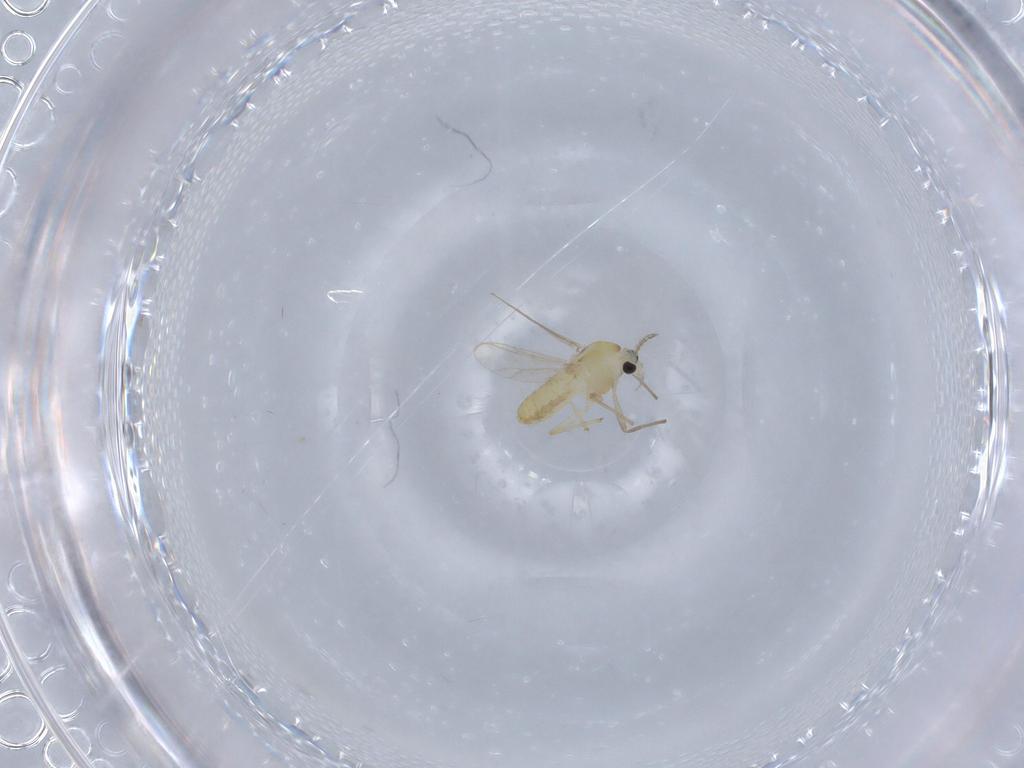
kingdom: Animalia
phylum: Arthropoda
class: Insecta
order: Diptera
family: Chironomidae
